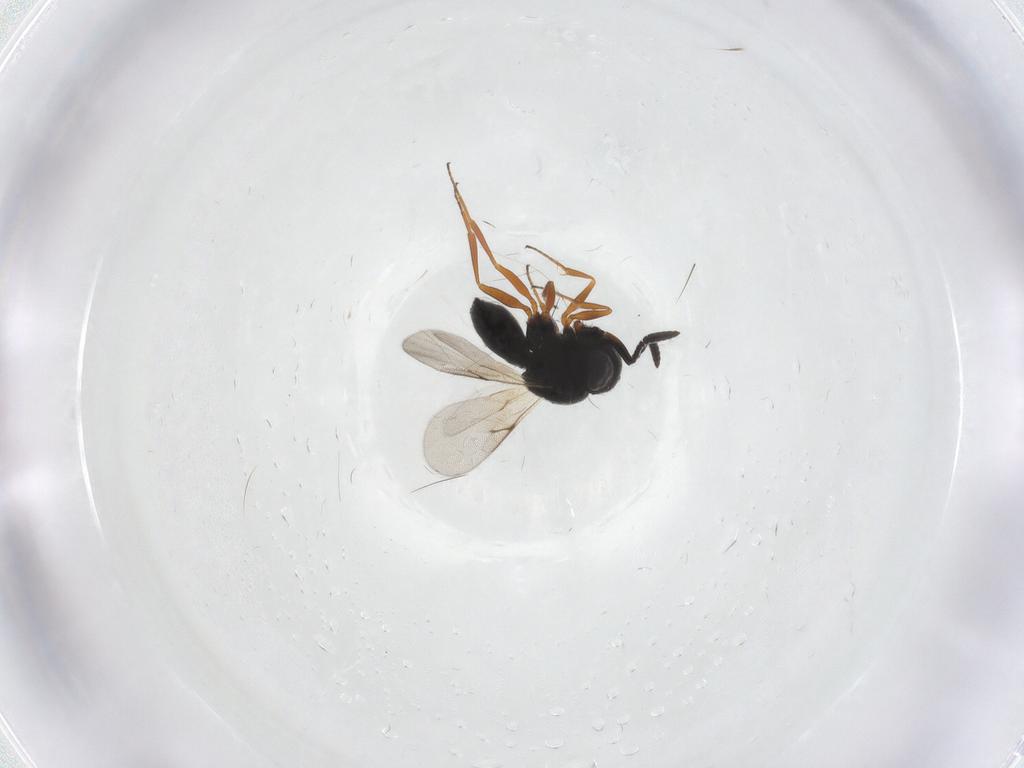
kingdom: Animalia
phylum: Arthropoda
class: Insecta
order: Hymenoptera
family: Scelionidae
